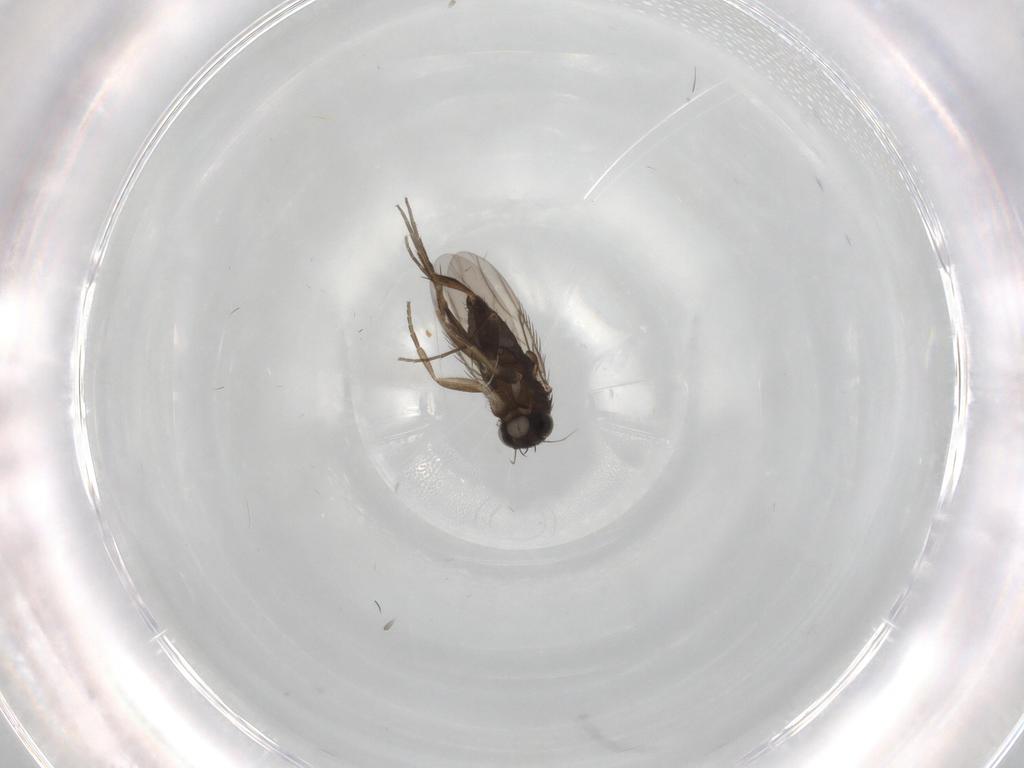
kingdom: Animalia
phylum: Arthropoda
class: Insecta
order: Diptera
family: Phoridae
